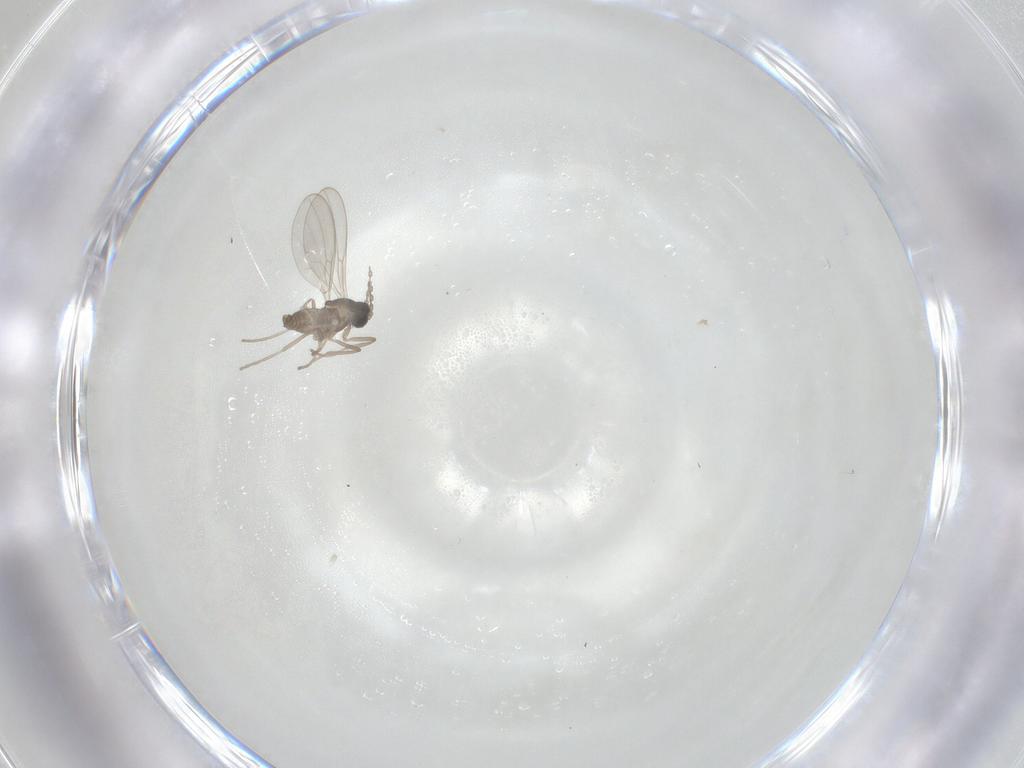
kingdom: Animalia
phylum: Arthropoda
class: Insecta
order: Diptera
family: Cecidomyiidae
